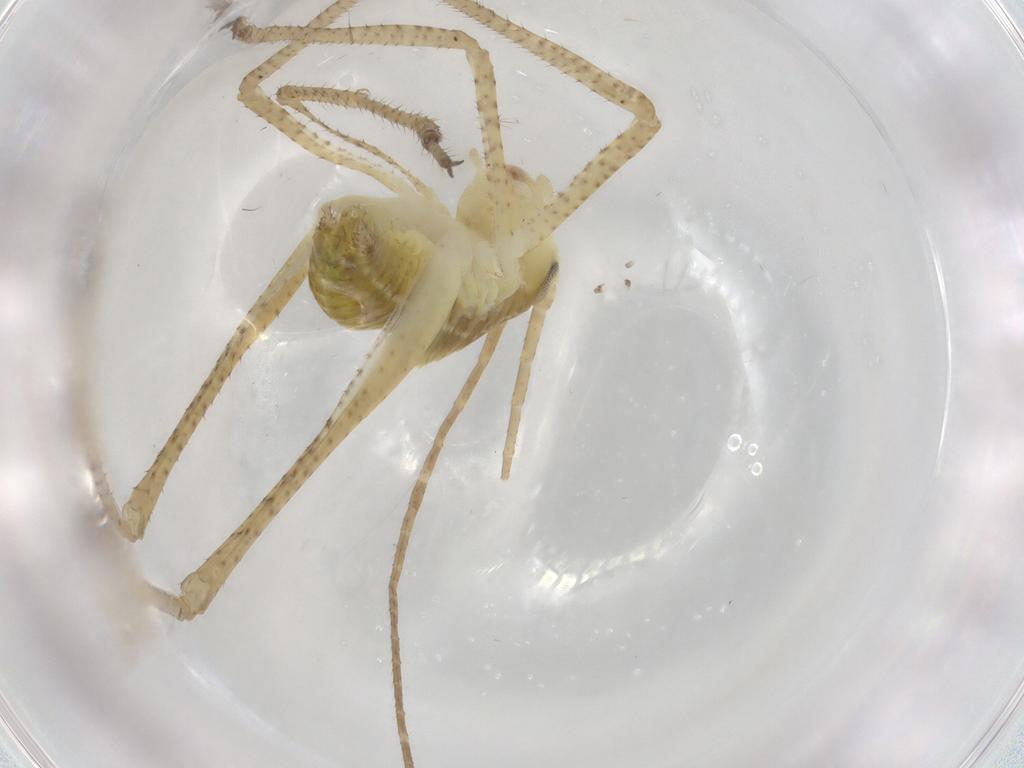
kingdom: Animalia
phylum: Arthropoda
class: Insecta
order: Orthoptera
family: Tettigoniidae
